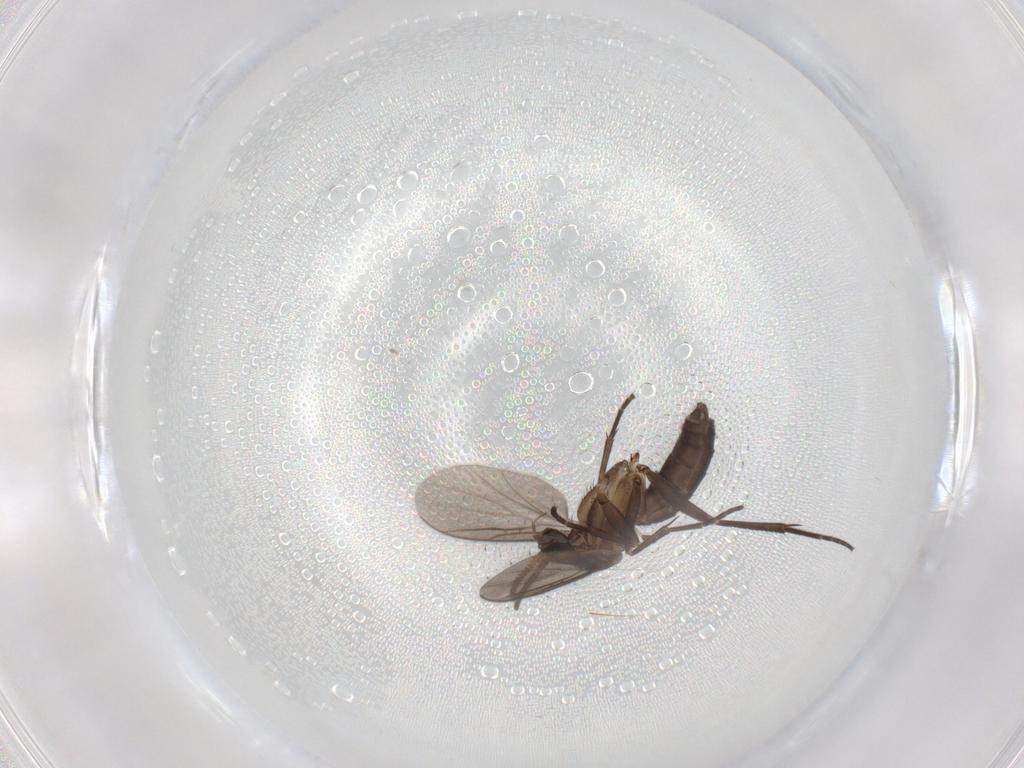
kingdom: Animalia
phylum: Arthropoda
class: Insecta
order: Diptera
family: Mycetophilidae
